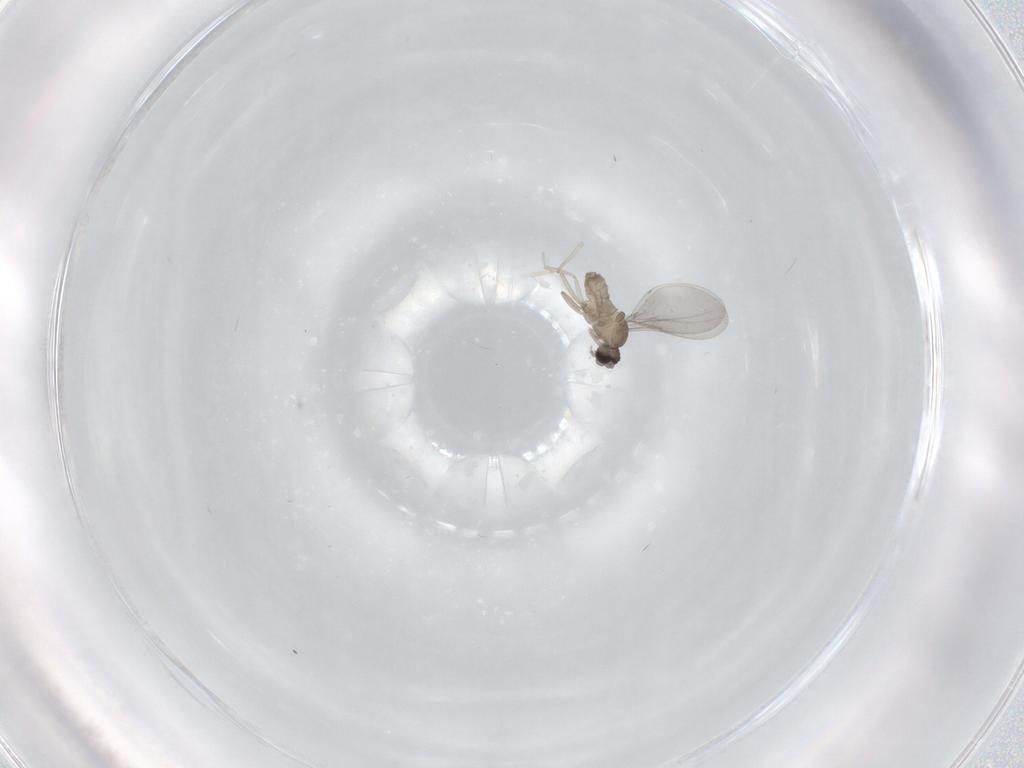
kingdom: Animalia
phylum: Arthropoda
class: Insecta
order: Diptera
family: Cecidomyiidae
